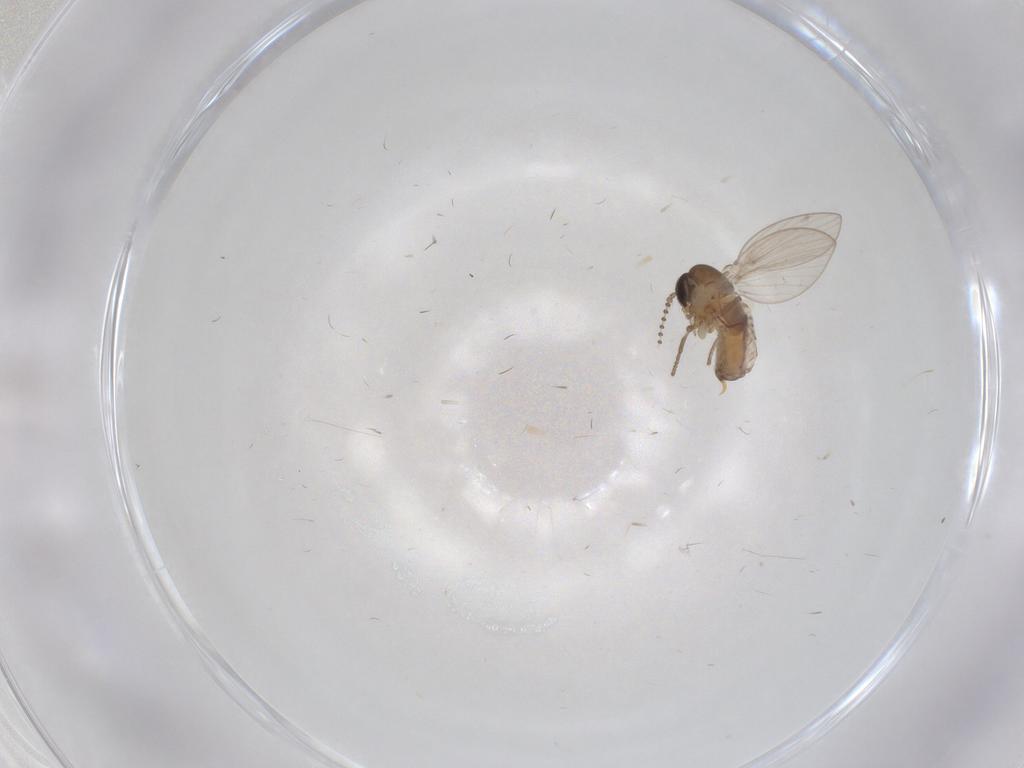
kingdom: Animalia
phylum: Arthropoda
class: Insecta
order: Diptera
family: Psychodidae
